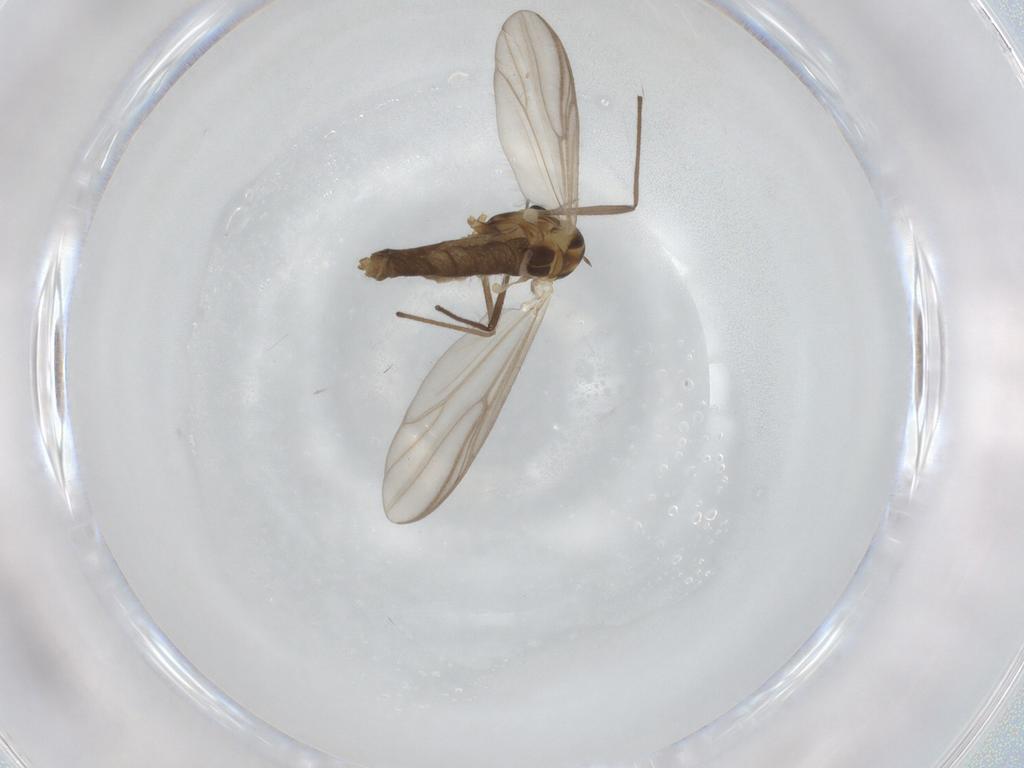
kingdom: Animalia
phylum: Arthropoda
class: Insecta
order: Diptera
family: Chironomidae
